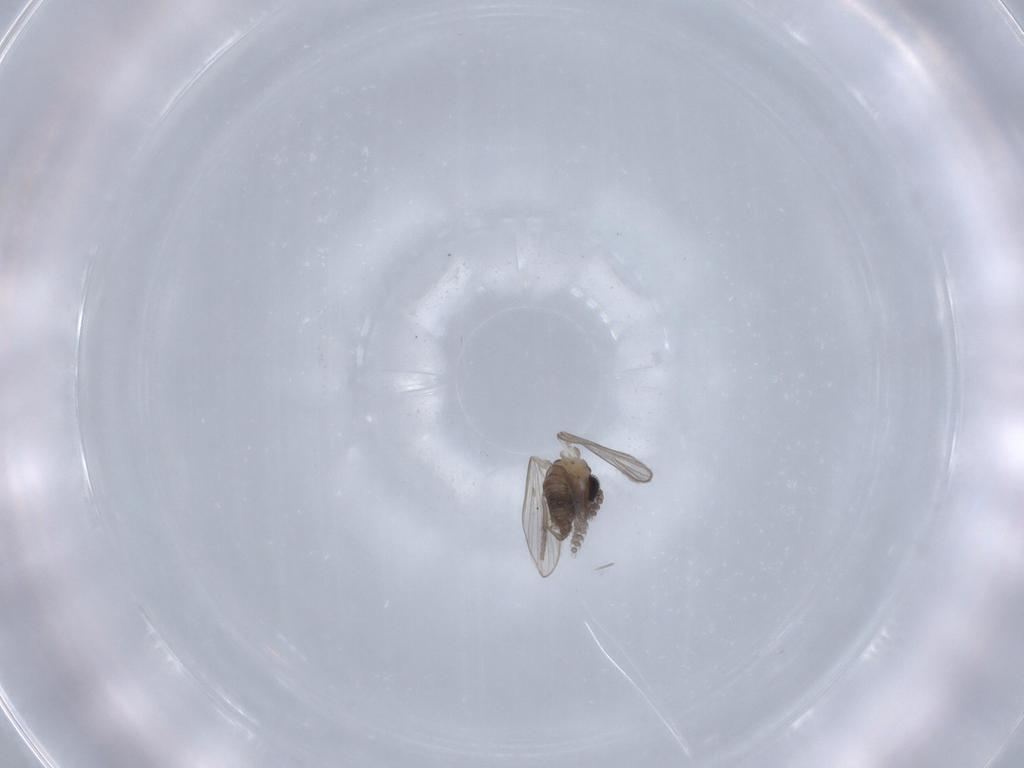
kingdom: Animalia
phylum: Arthropoda
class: Insecta
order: Diptera
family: Psychodidae
